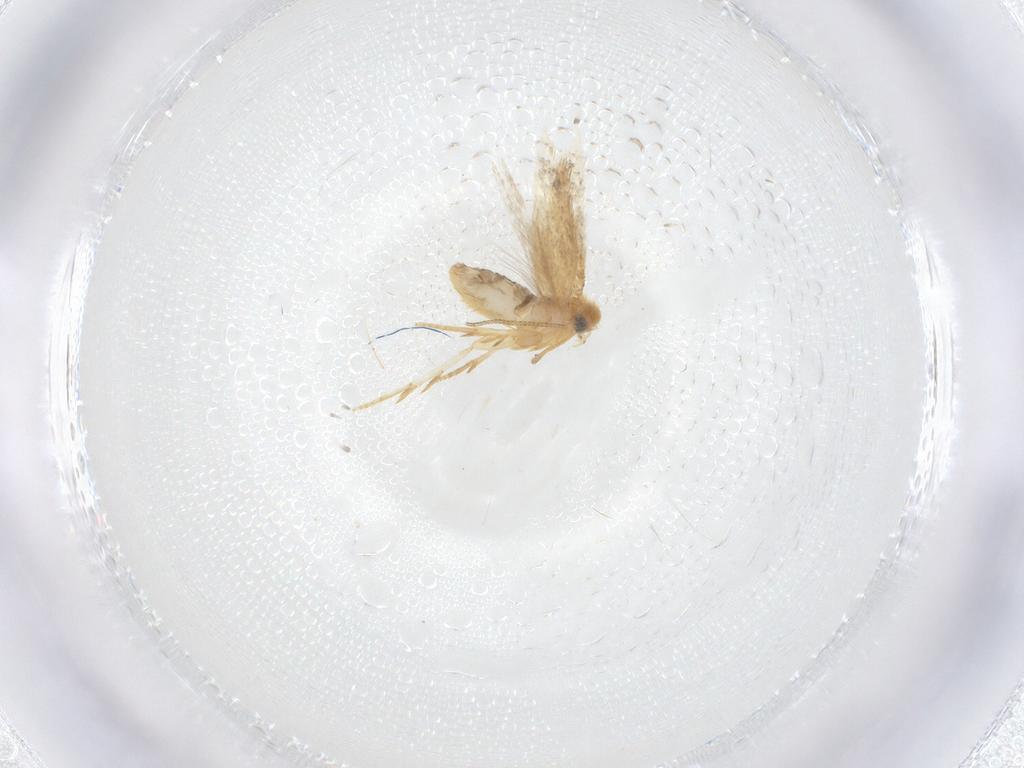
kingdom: Animalia
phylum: Arthropoda
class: Insecta
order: Lepidoptera
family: Nepticulidae
